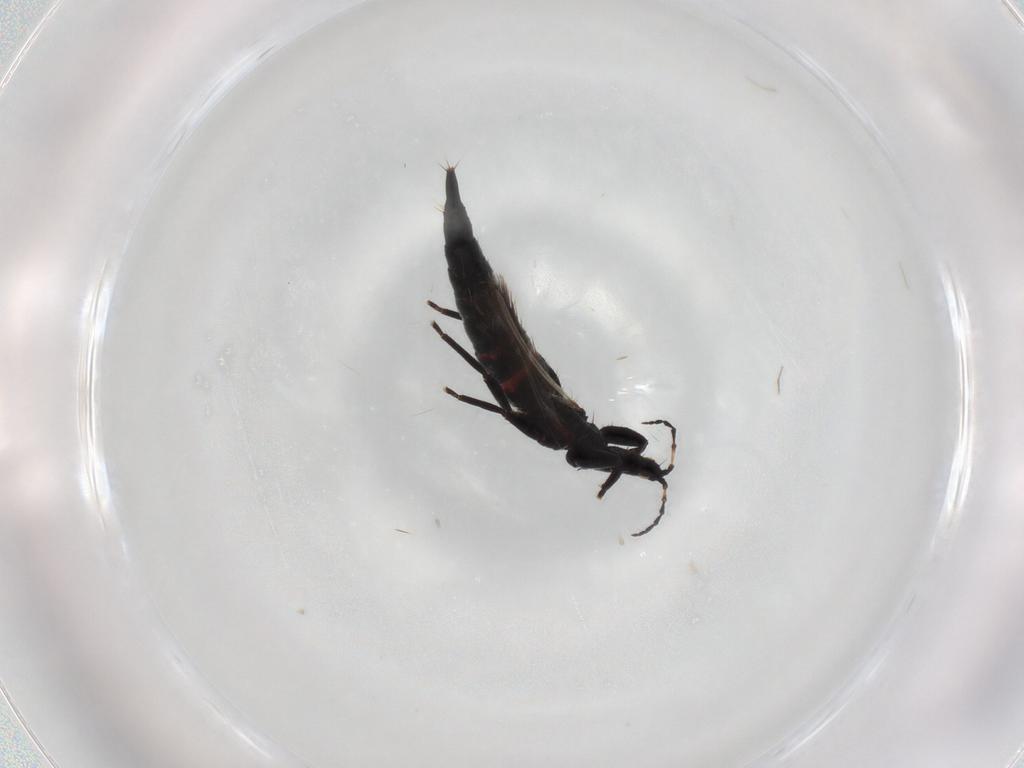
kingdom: Animalia
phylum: Arthropoda
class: Insecta
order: Thysanoptera
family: Phlaeothripidae
